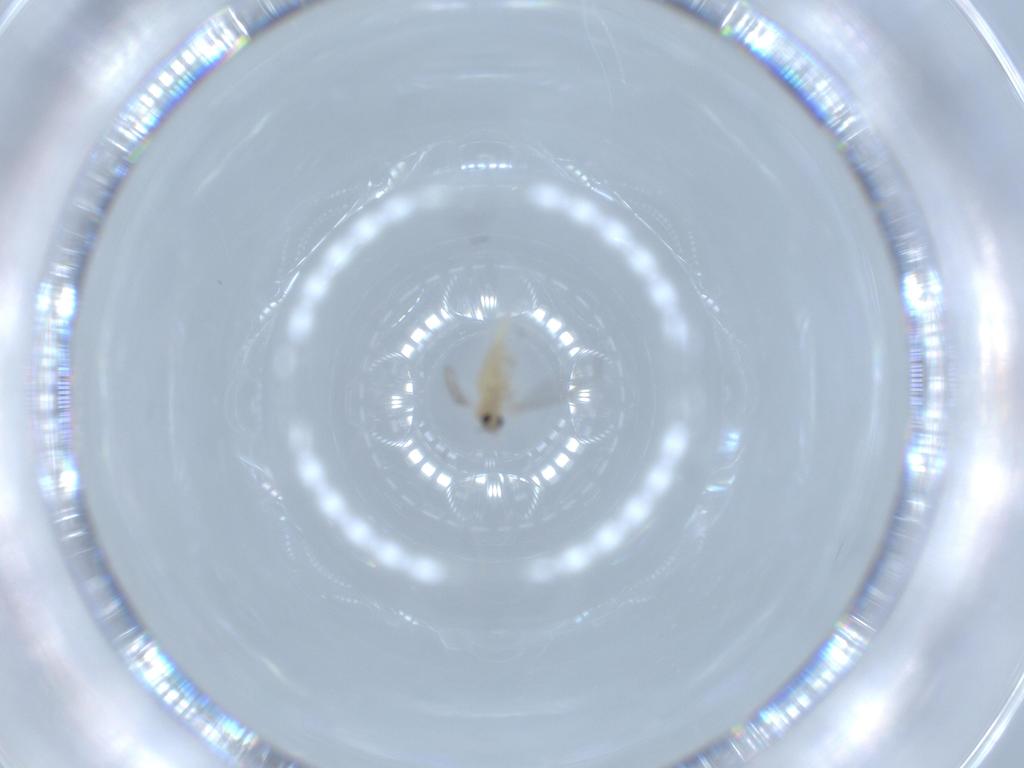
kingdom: Animalia
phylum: Arthropoda
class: Insecta
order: Diptera
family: Cecidomyiidae
